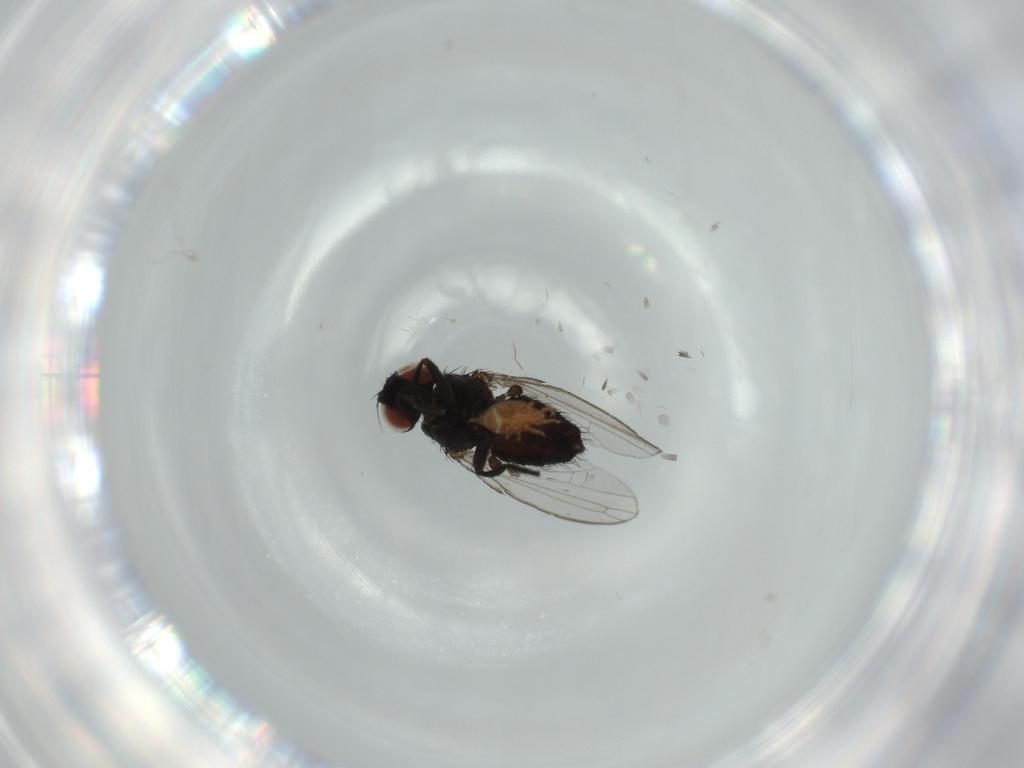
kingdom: Animalia
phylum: Arthropoda
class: Insecta
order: Diptera
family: Milichiidae
